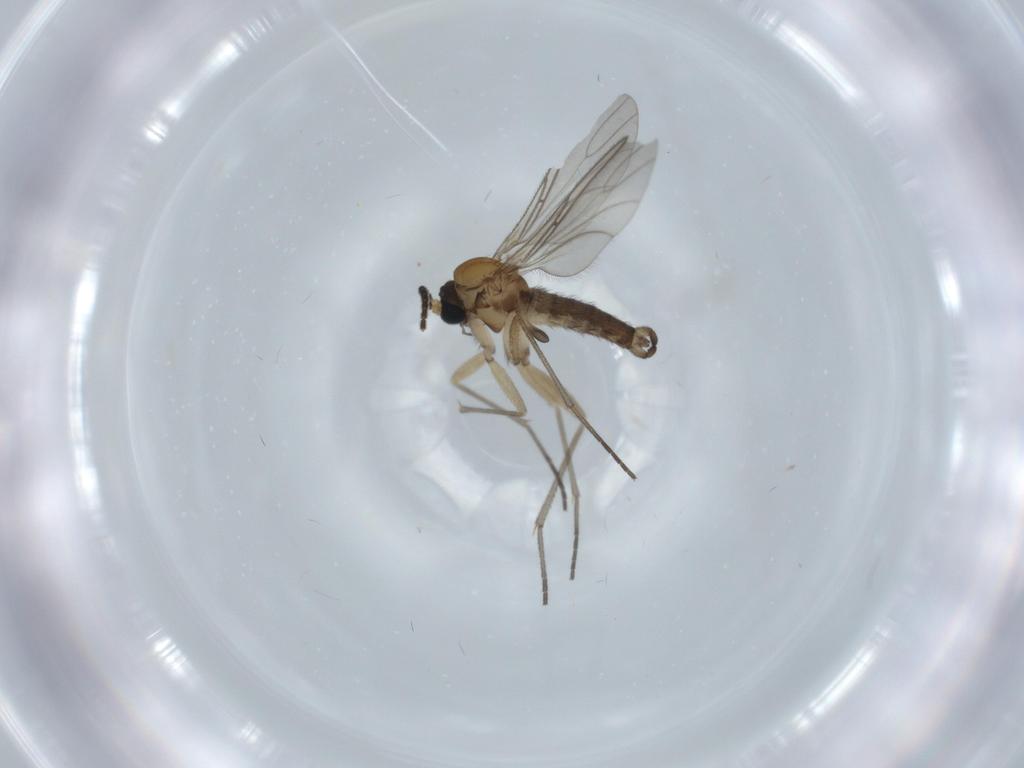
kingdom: Animalia
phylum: Arthropoda
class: Insecta
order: Diptera
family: Sciaridae
